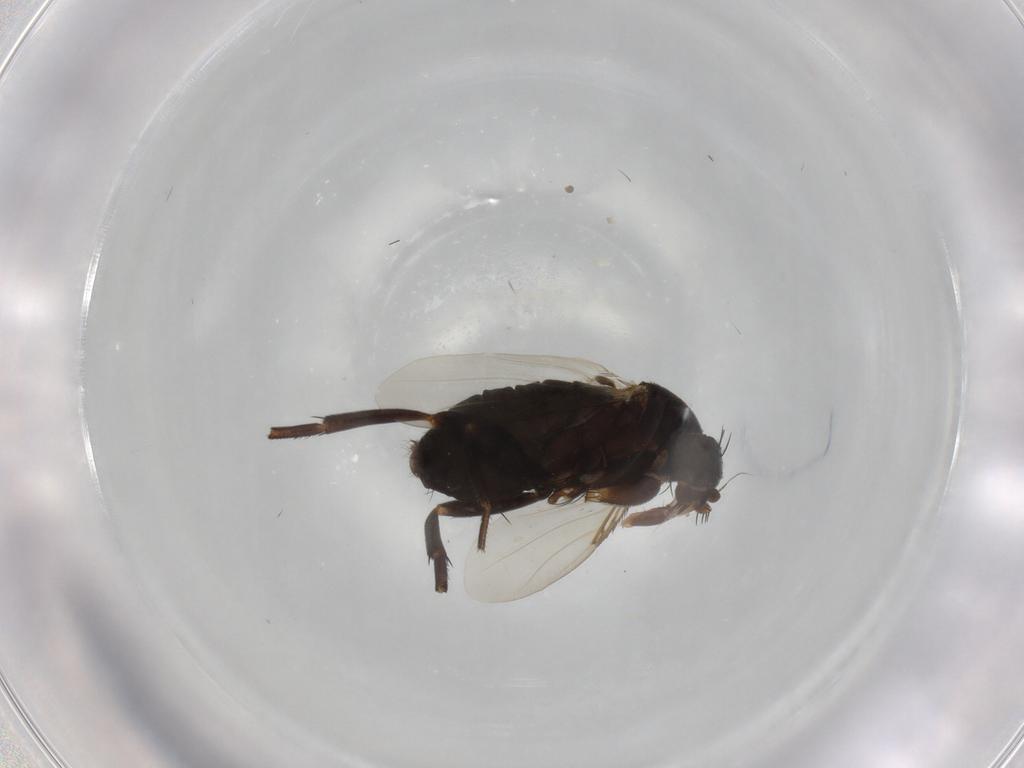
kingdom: Animalia
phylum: Arthropoda
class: Insecta
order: Diptera
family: Phoridae
